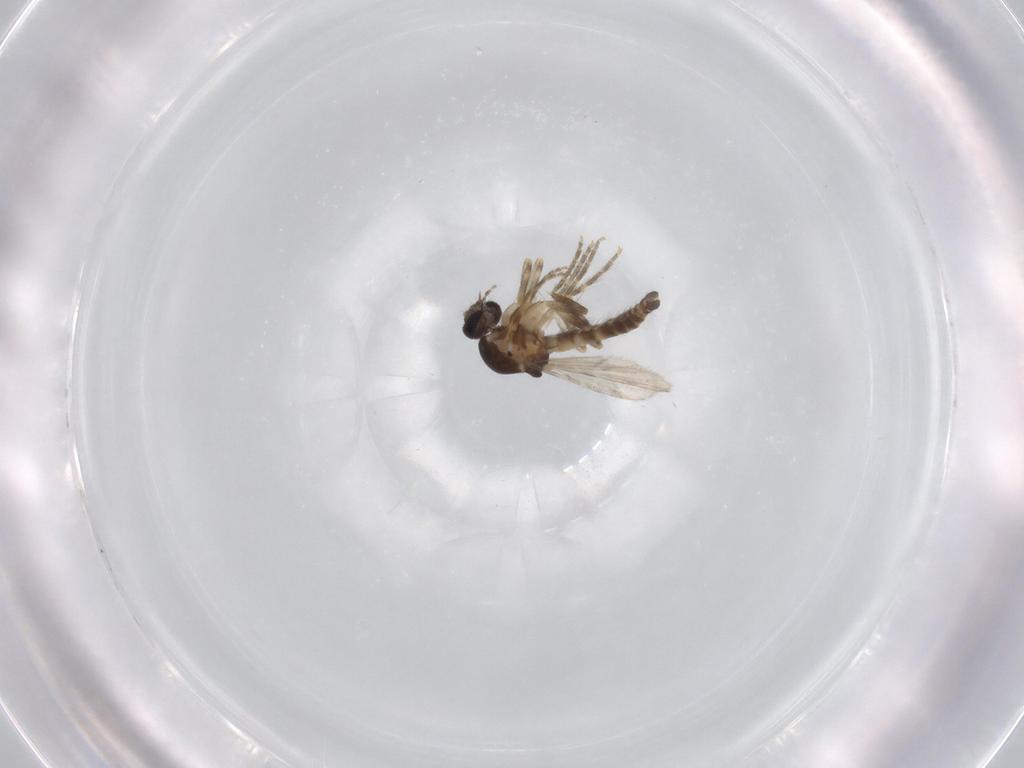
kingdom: Animalia
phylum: Arthropoda
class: Insecta
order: Diptera
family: Ceratopogonidae
